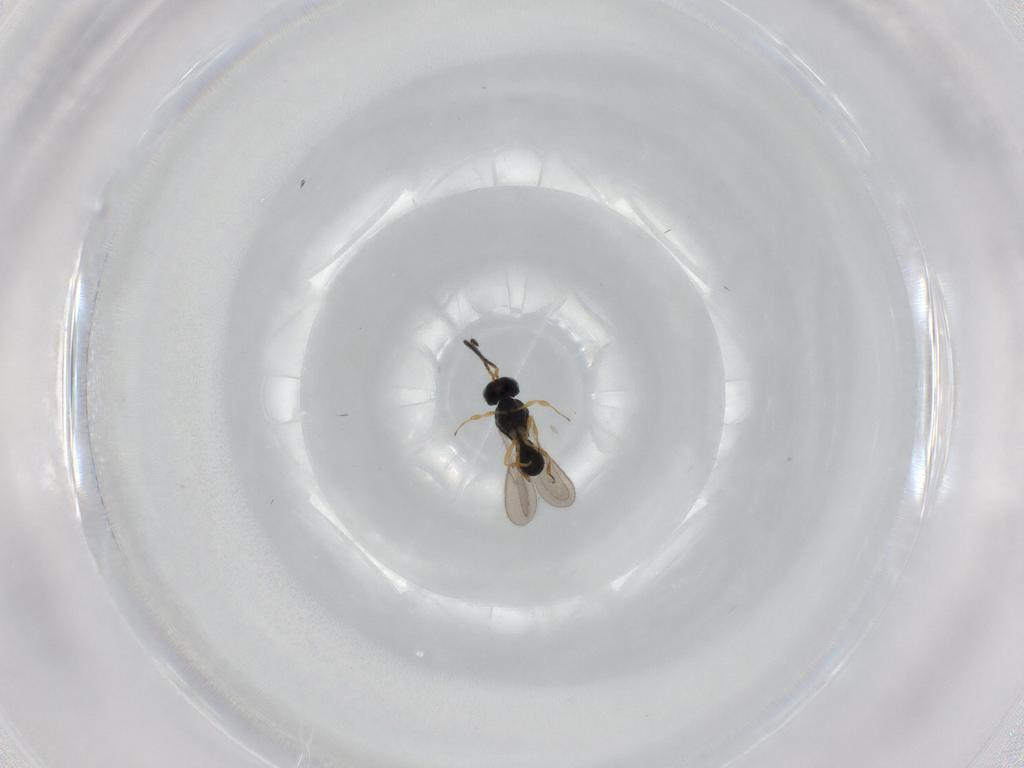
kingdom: Animalia
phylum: Arthropoda
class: Insecta
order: Hymenoptera
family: Scelionidae
